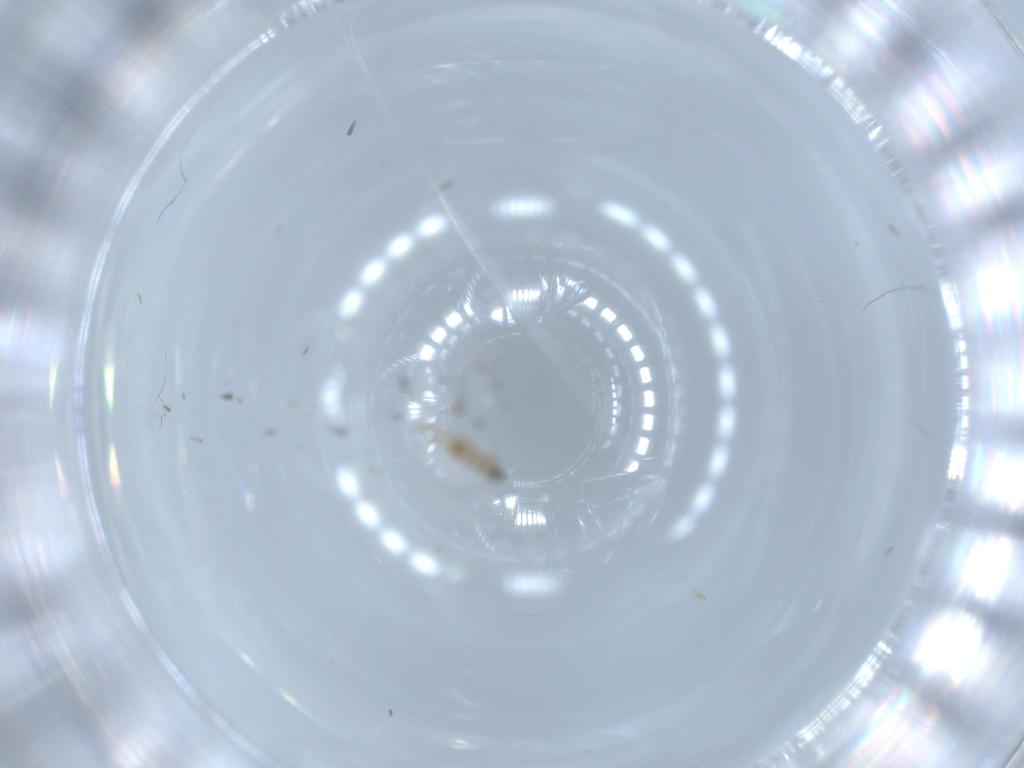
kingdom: Animalia
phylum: Arthropoda
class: Insecta
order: Diptera
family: Cecidomyiidae
